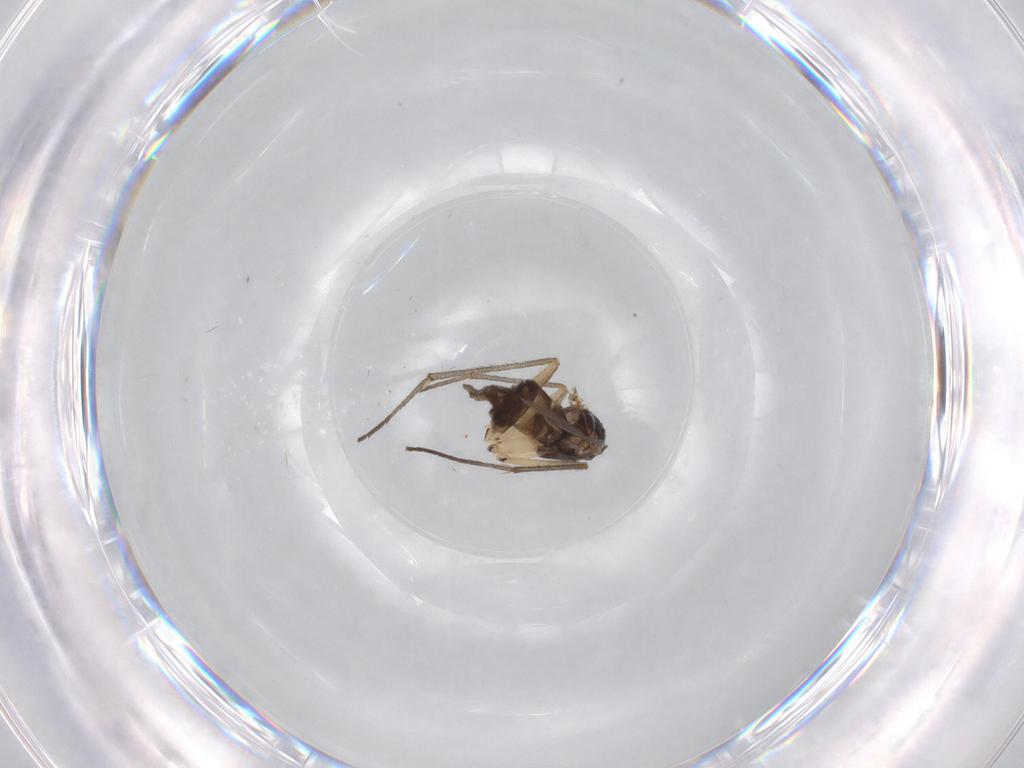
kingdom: Animalia
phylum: Arthropoda
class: Insecta
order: Diptera
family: Sciaridae
